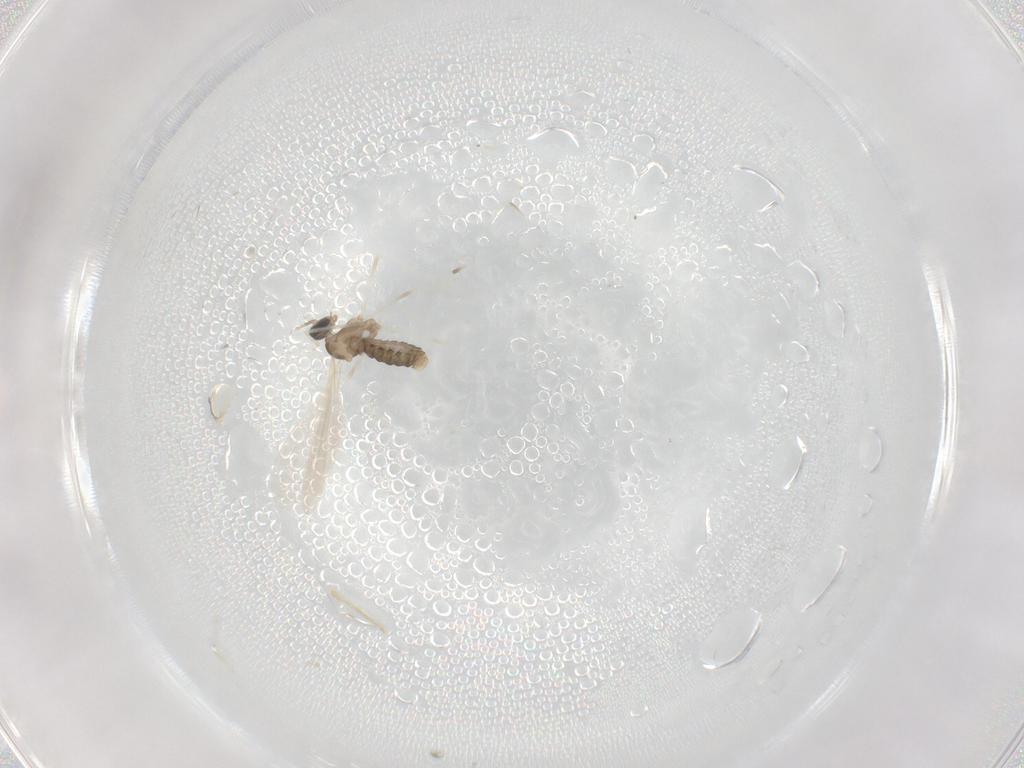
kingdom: Animalia
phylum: Arthropoda
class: Insecta
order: Diptera
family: Cecidomyiidae
